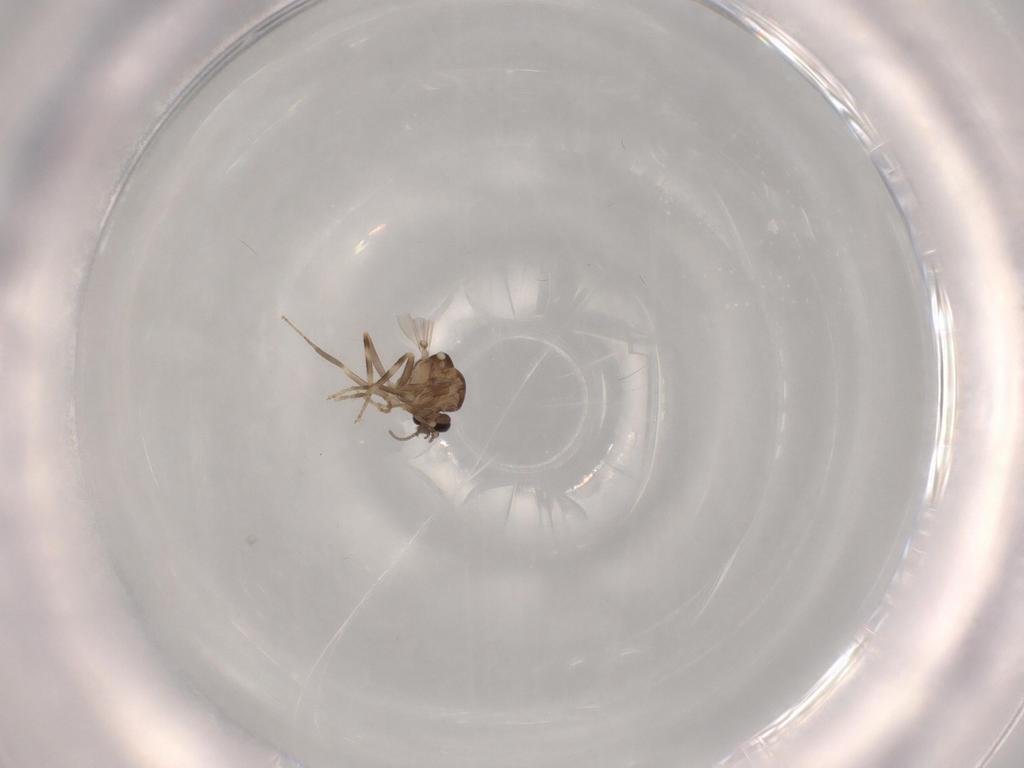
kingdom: Animalia
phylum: Arthropoda
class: Insecta
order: Diptera
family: Ceratopogonidae
